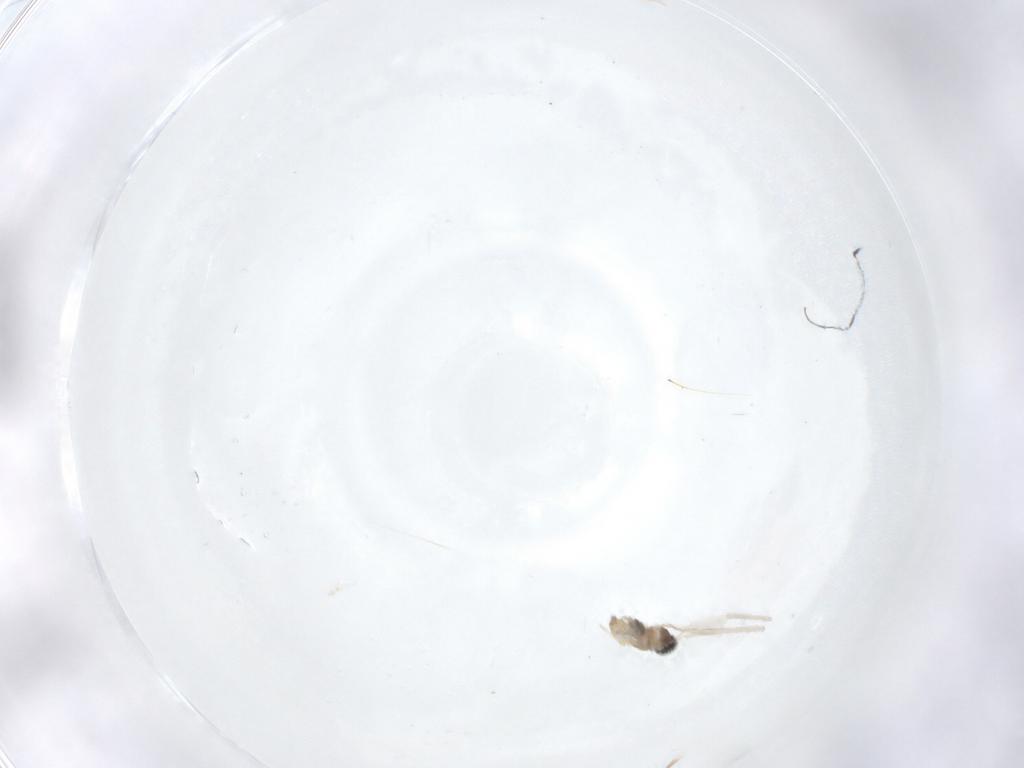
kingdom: Animalia
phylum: Arthropoda
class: Insecta
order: Diptera
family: Cecidomyiidae
